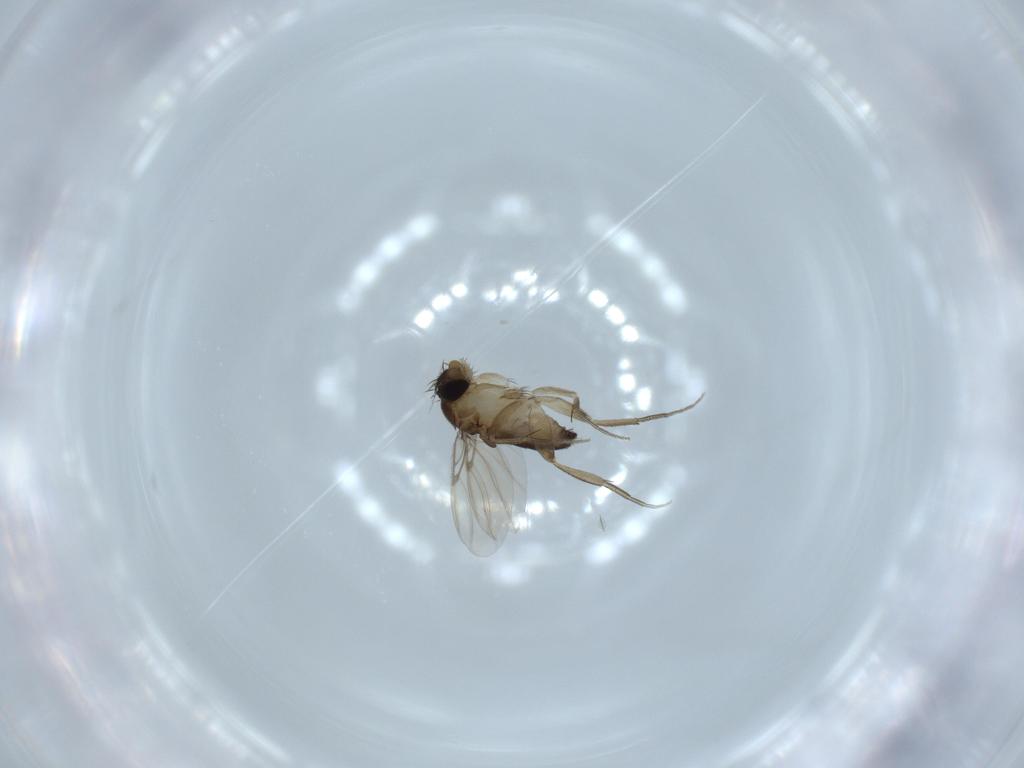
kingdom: Animalia
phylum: Arthropoda
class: Insecta
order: Diptera
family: Phoridae
